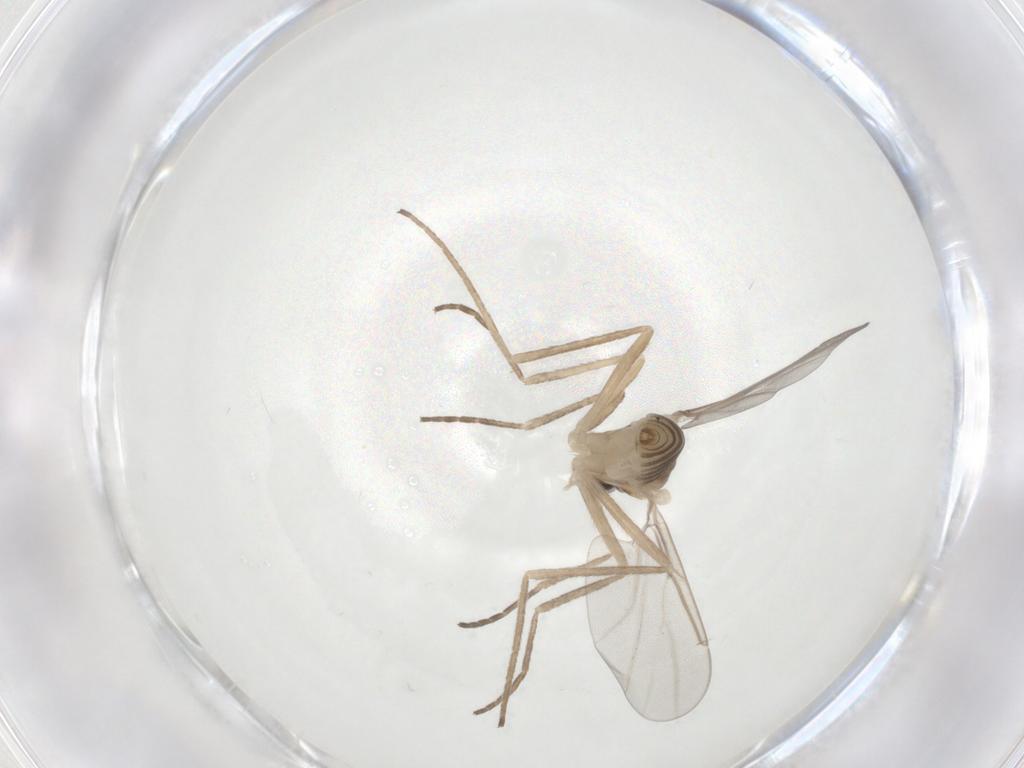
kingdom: Animalia
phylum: Arthropoda
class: Insecta
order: Diptera
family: Cecidomyiidae
